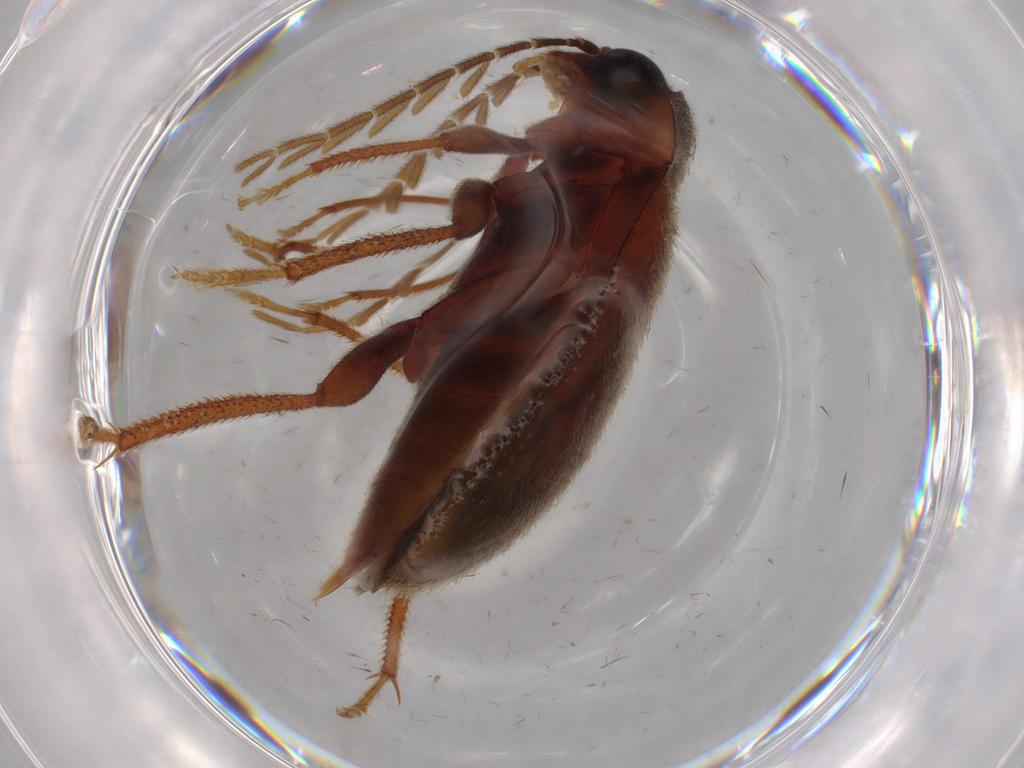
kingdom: Animalia
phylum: Arthropoda
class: Insecta
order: Coleoptera
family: Ptilodactylidae
